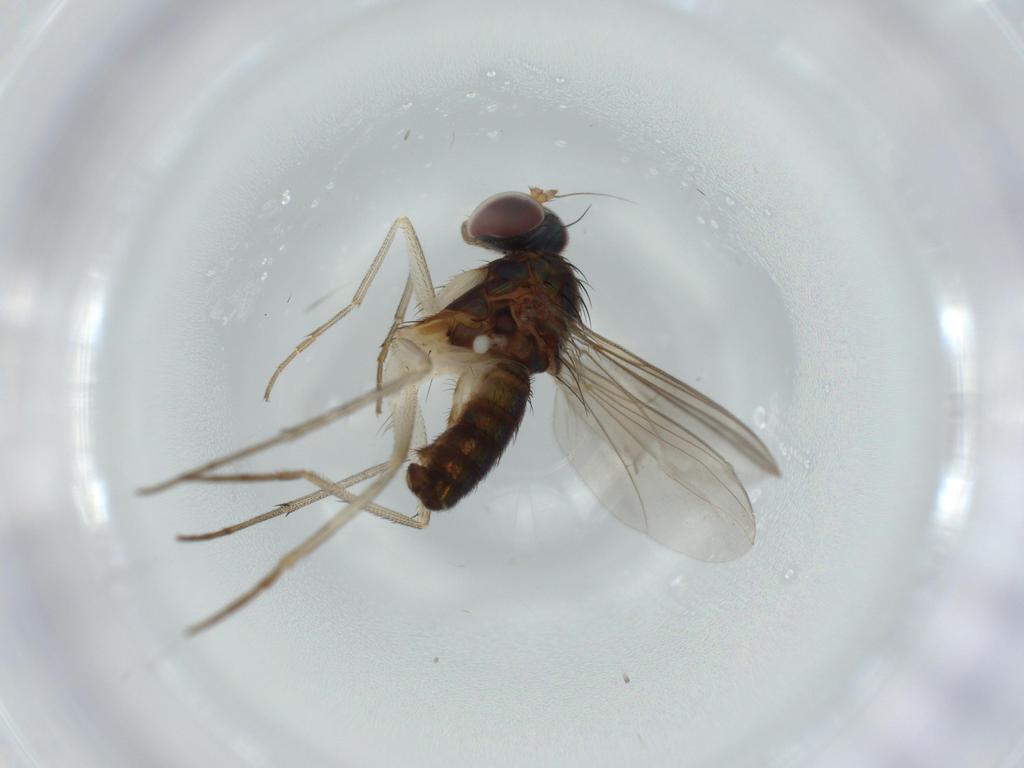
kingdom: Animalia
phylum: Arthropoda
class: Insecta
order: Diptera
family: Dolichopodidae
